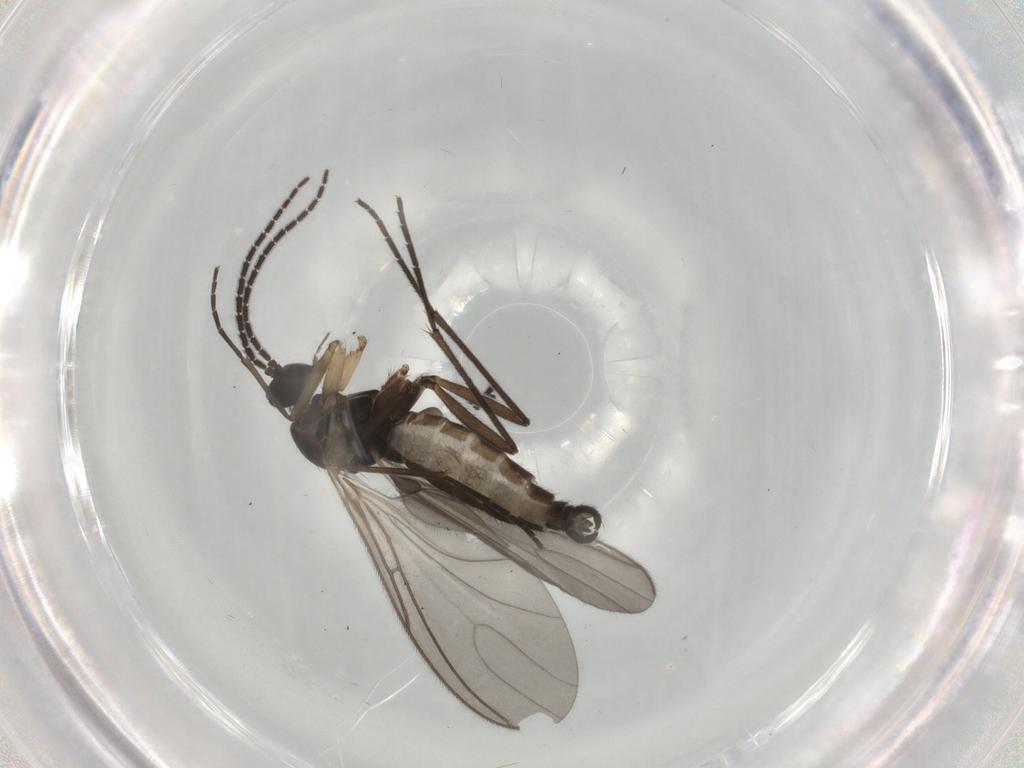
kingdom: Animalia
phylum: Arthropoda
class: Insecta
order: Diptera
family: Sciaridae
